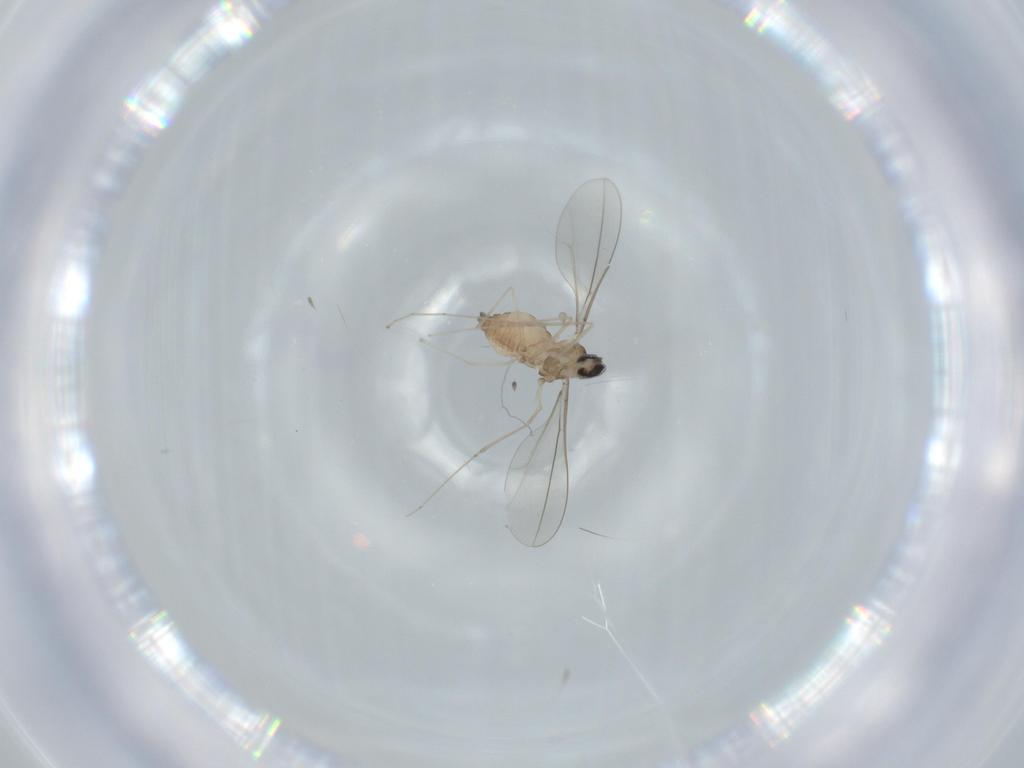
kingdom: Animalia
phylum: Arthropoda
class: Insecta
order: Diptera
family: Cecidomyiidae
